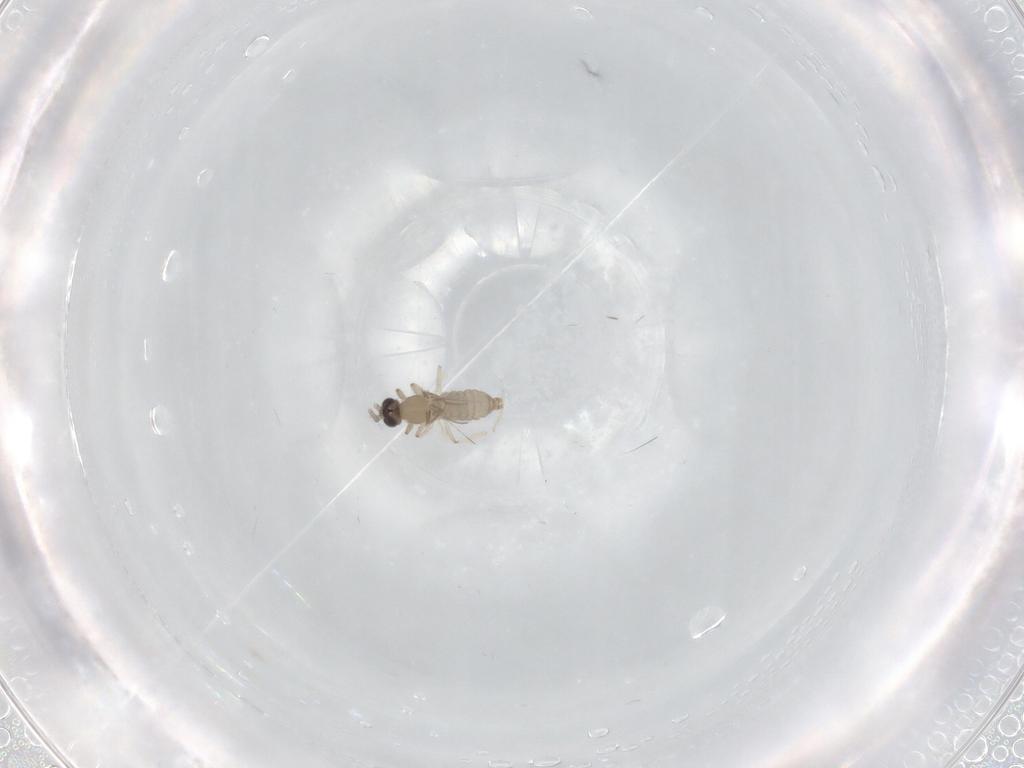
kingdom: Animalia
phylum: Arthropoda
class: Insecta
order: Diptera
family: Cecidomyiidae
